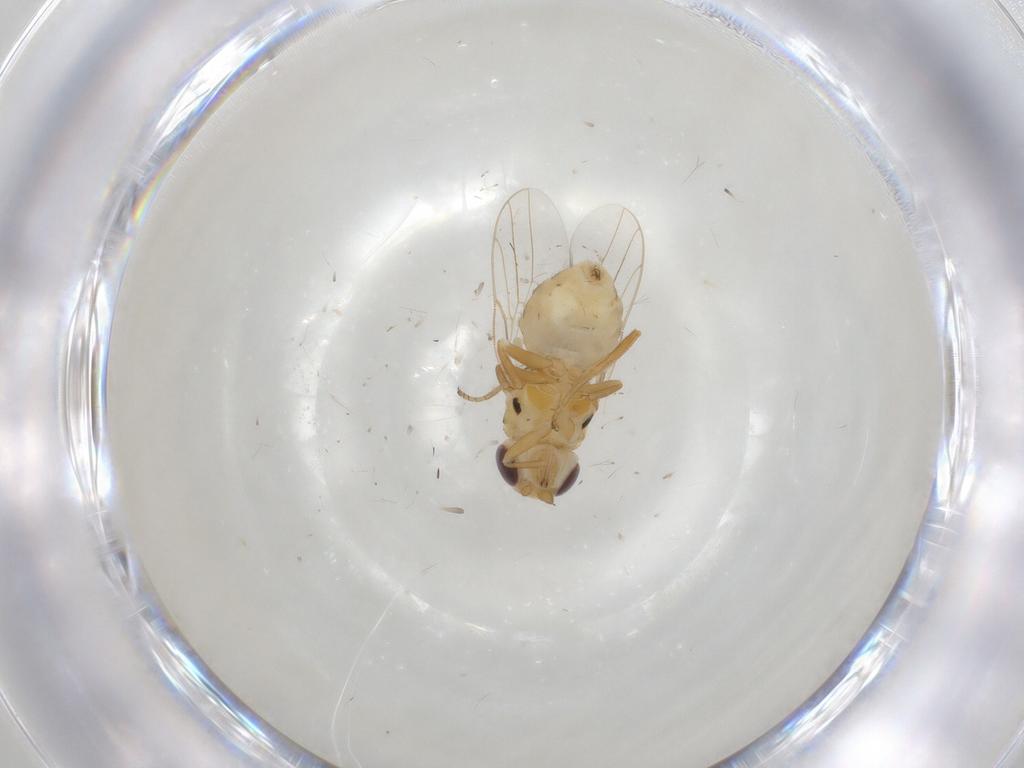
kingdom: Animalia
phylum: Arthropoda
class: Insecta
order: Diptera
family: Chloropidae
